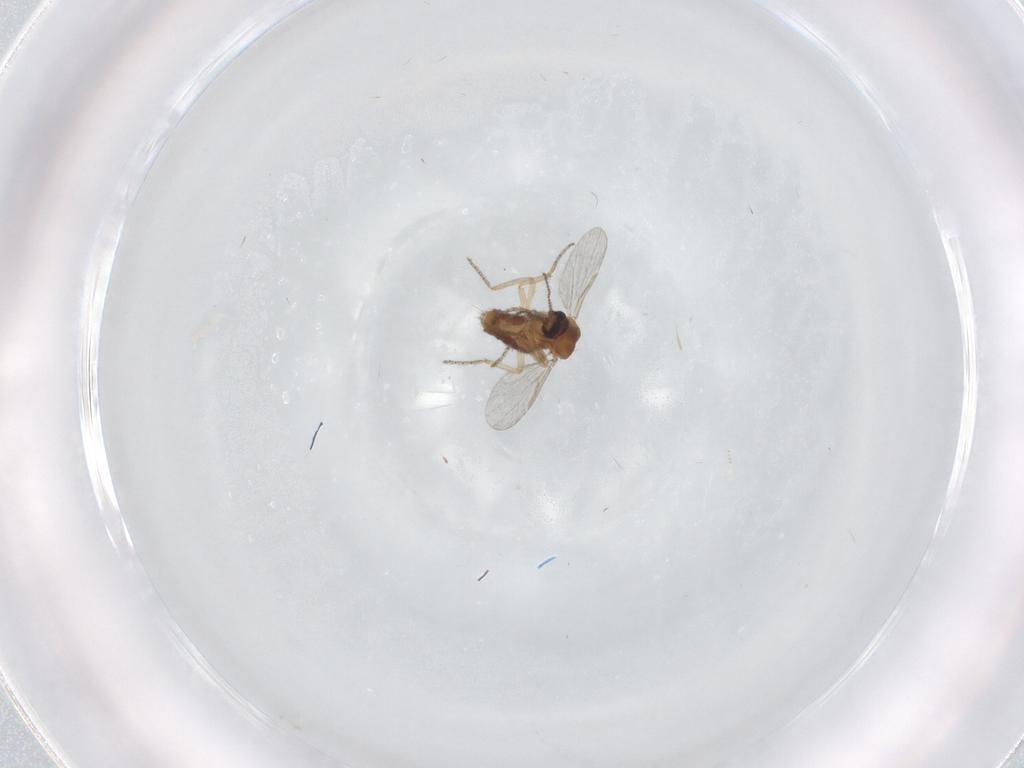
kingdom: Animalia
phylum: Arthropoda
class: Insecta
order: Diptera
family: Ceratopogonidae
